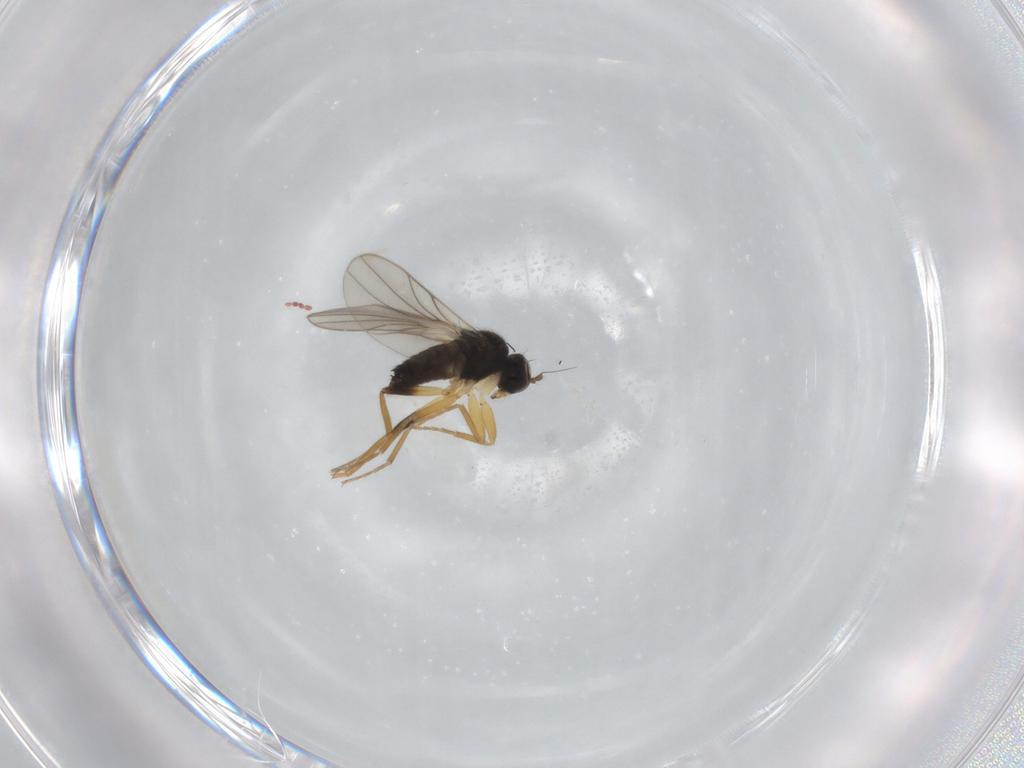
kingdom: Animalia
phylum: Arthropoda
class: Insecta
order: Diptera
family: Hybotidae
